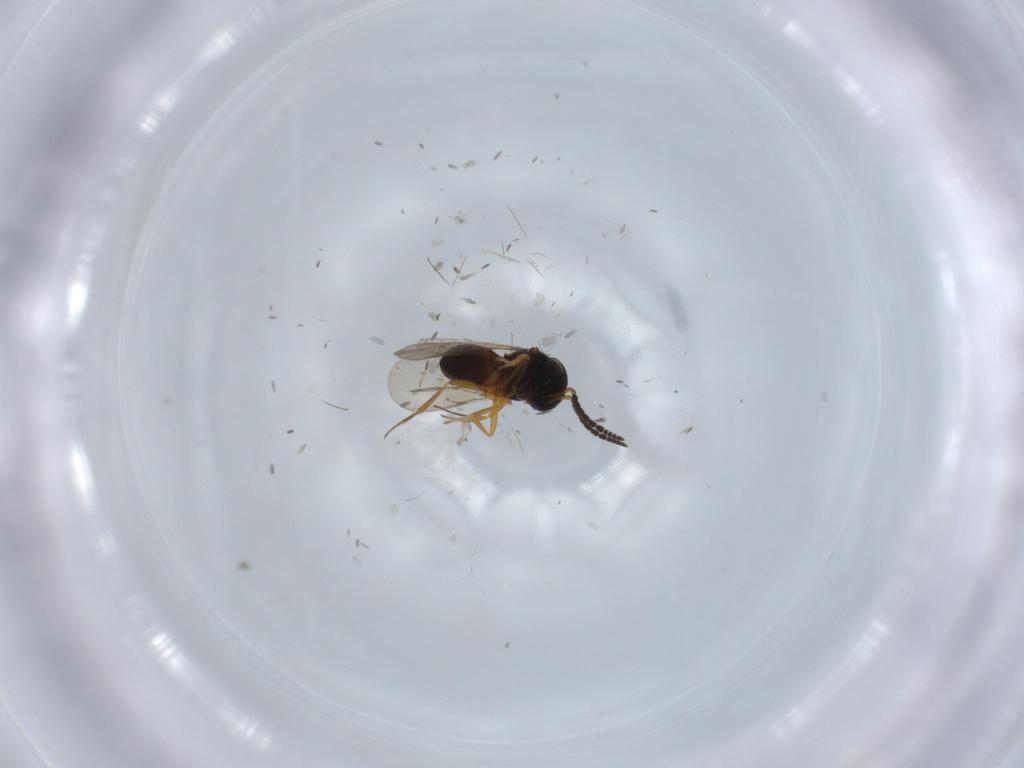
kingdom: Animalia
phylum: Arthropoda
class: Insecta
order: Coleoptera
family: Curculionidae
